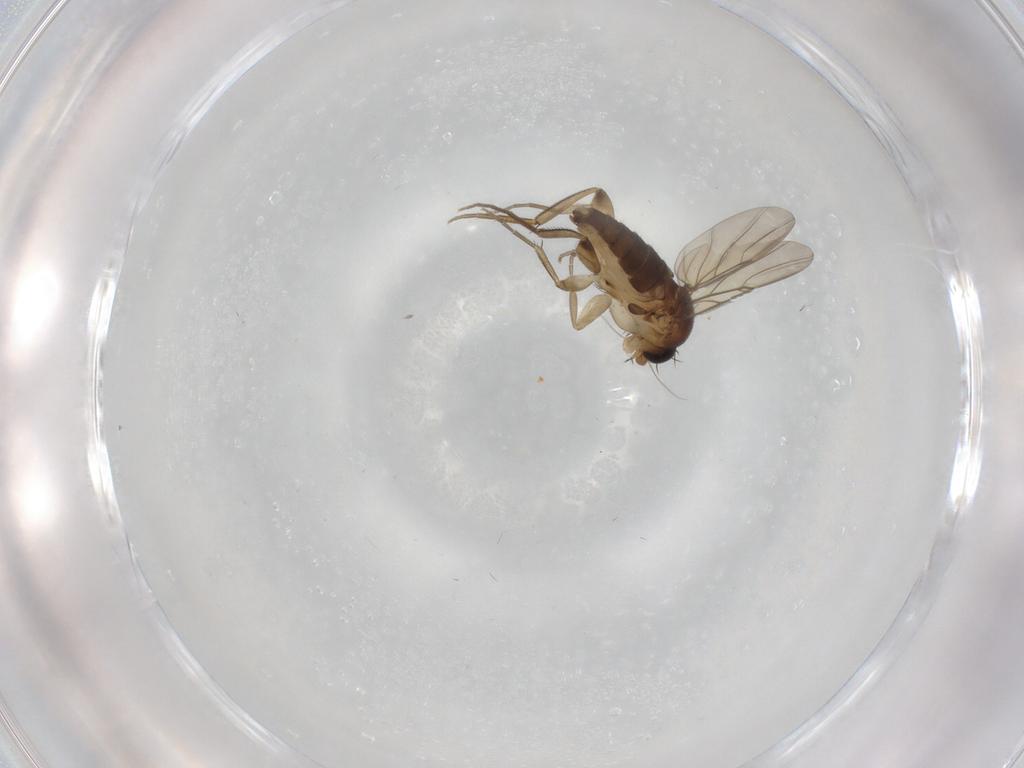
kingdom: Animalia
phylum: Arthropoda
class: Insecta
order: Diptera
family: Phoridae
